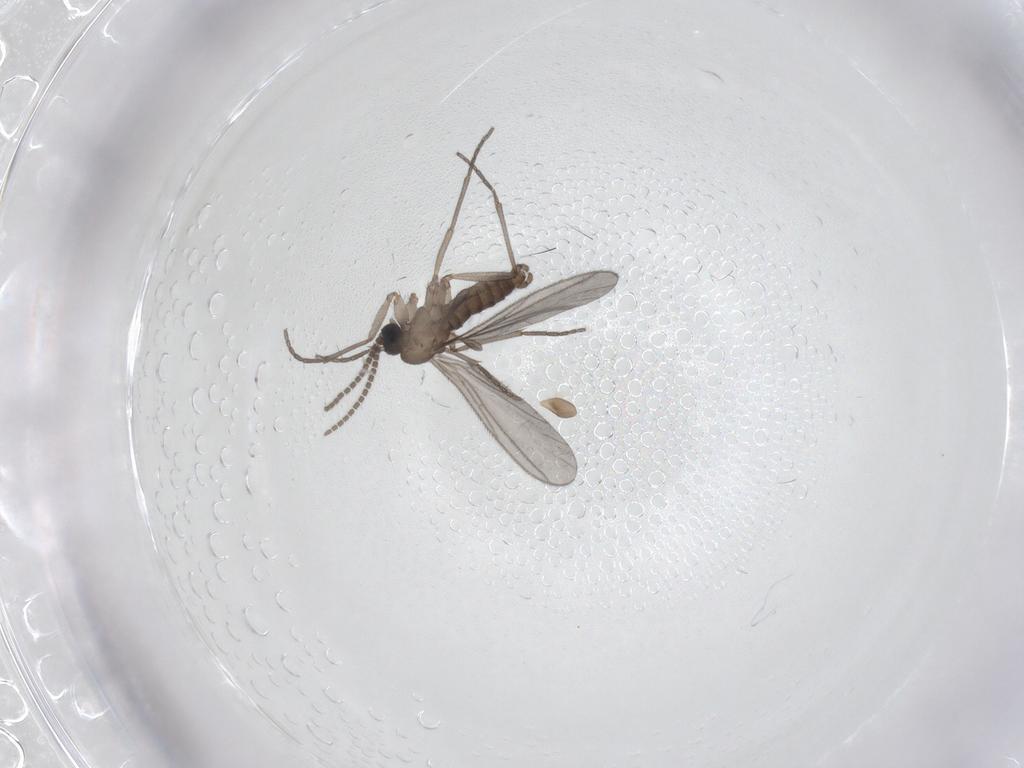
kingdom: Animalia
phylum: Arthropoda
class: Insecta
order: Diptera
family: Mycetophilidae
